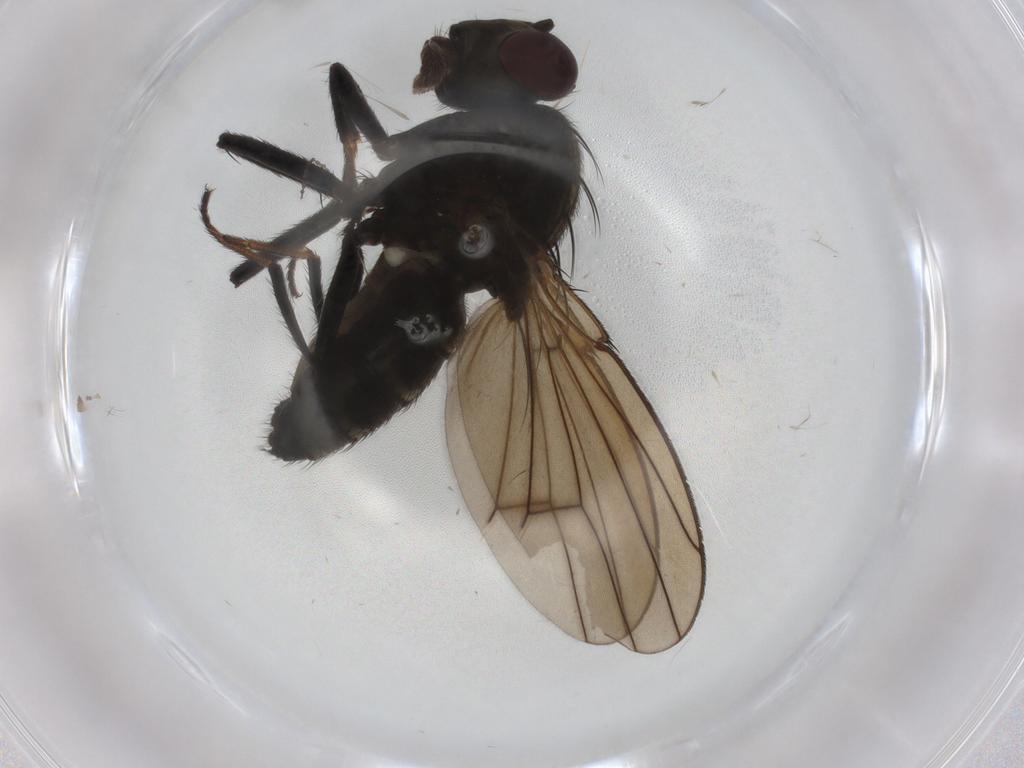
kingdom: Animalia
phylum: Arthropoda
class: Insecta
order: Diptera
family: Ephydridae
